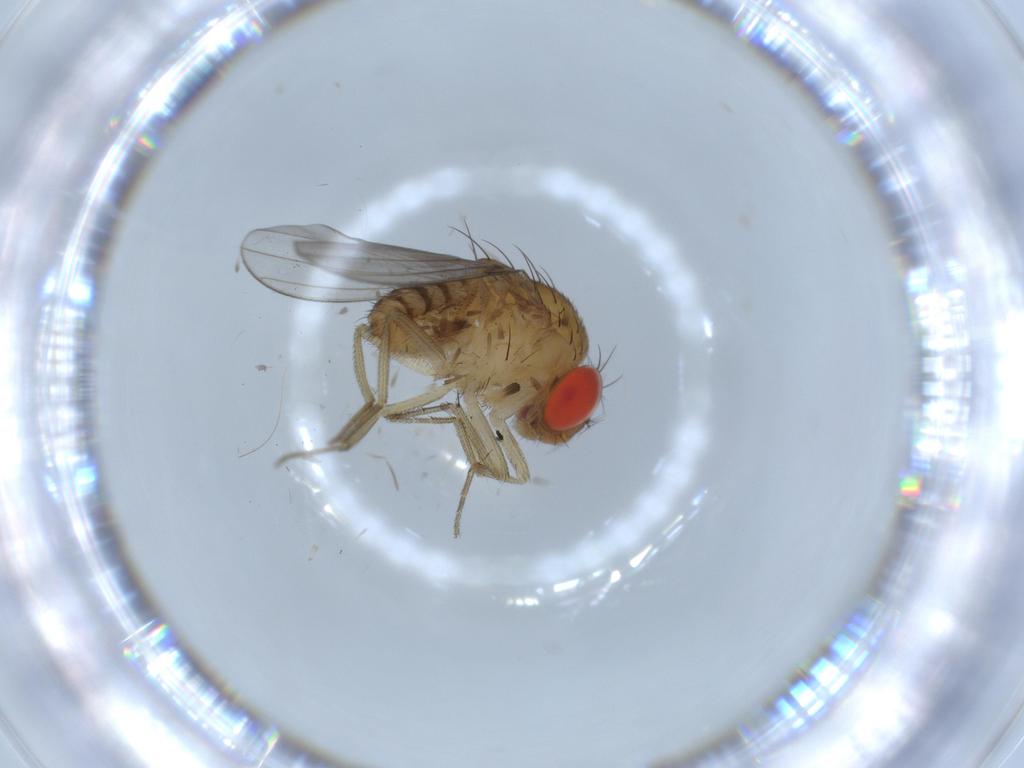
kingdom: Animalia
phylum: Arthropoda
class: Insecta
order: Diptera
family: Drosophilidae
